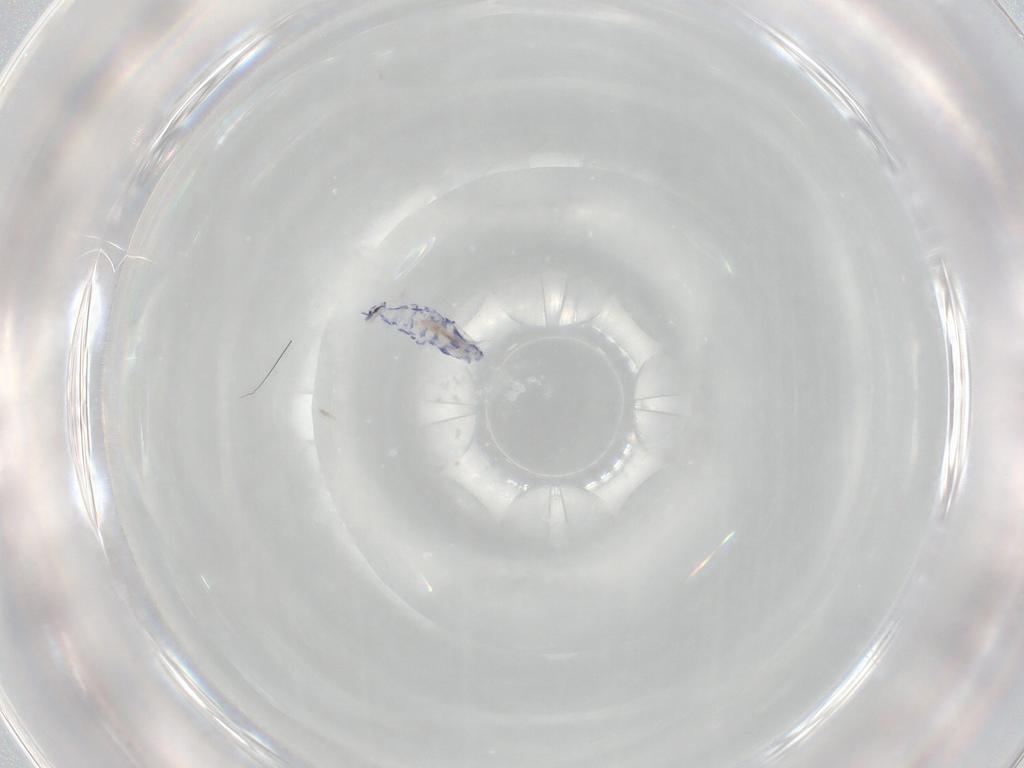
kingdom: Animalia
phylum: Arthropoda
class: Collembola
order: Entomobryomorpha
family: Entomobryidae
